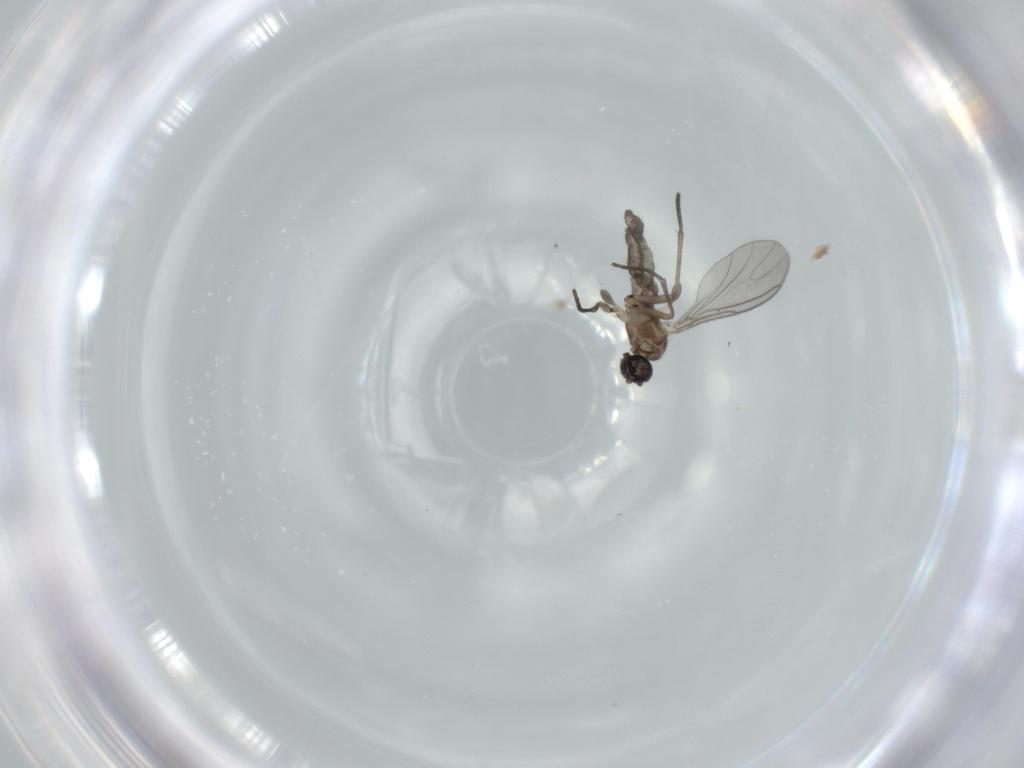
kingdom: Animalia
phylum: Arthropoda
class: Insecta
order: Diptera
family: Sciaridae
